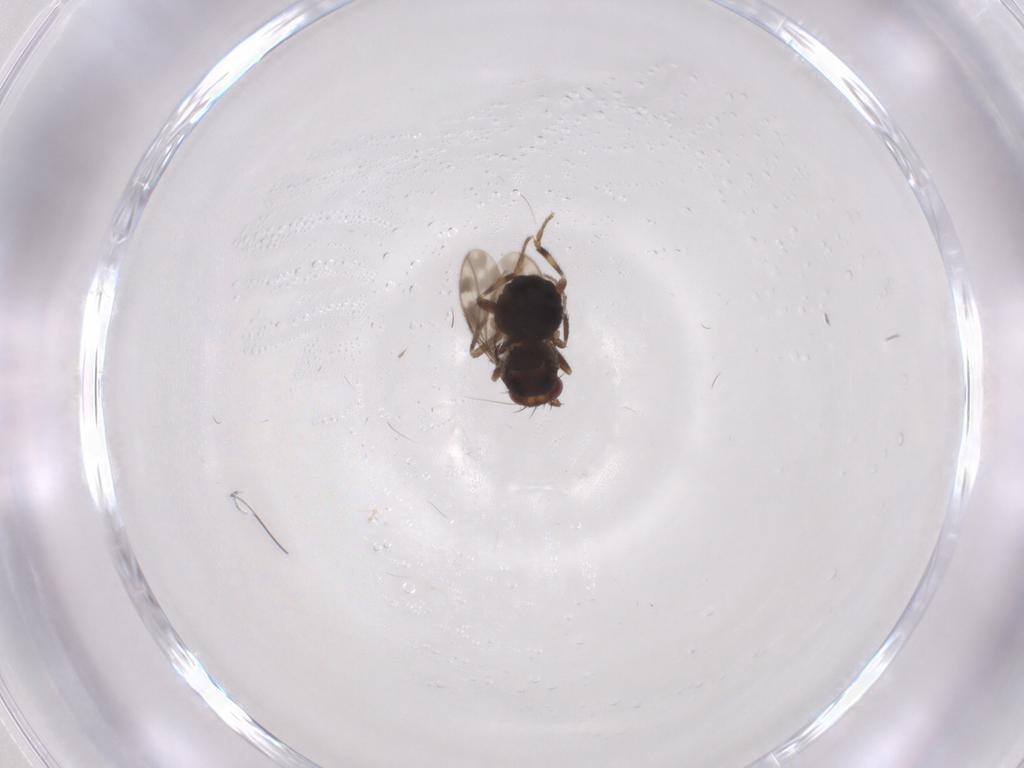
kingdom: Animalia
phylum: Arthropoda
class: Insecta
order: Diptera
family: Sphaeroceridae
